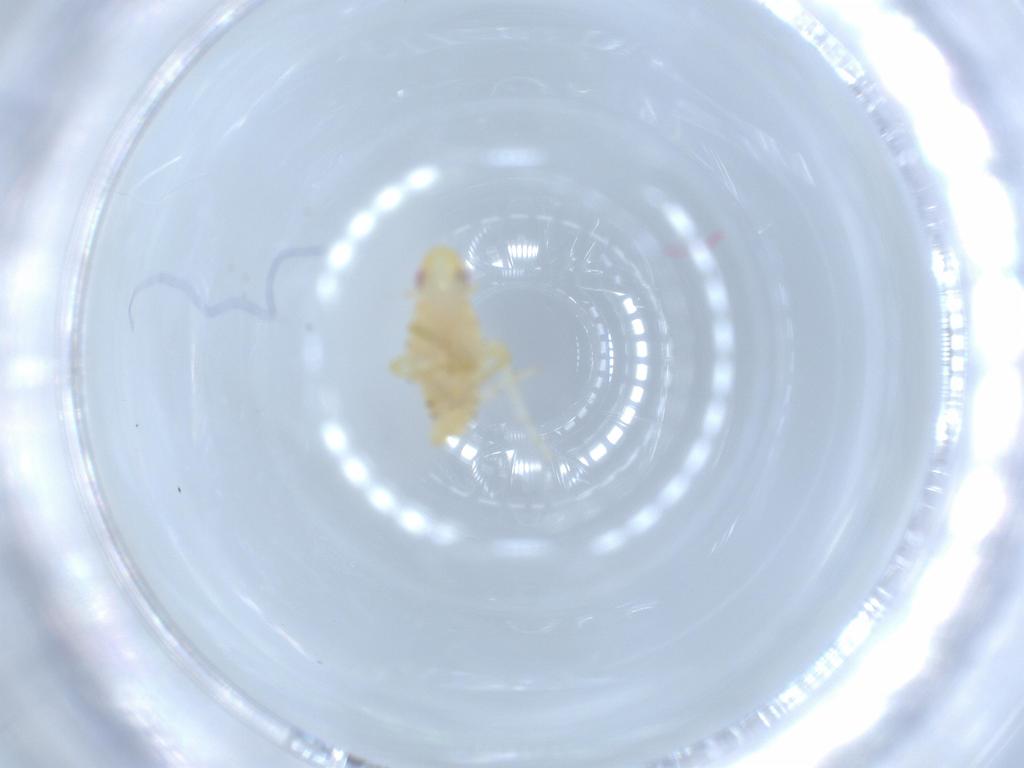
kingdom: Animalia
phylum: Arthropoda
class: Insecta
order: Hemiptera
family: Tropiduchidae
